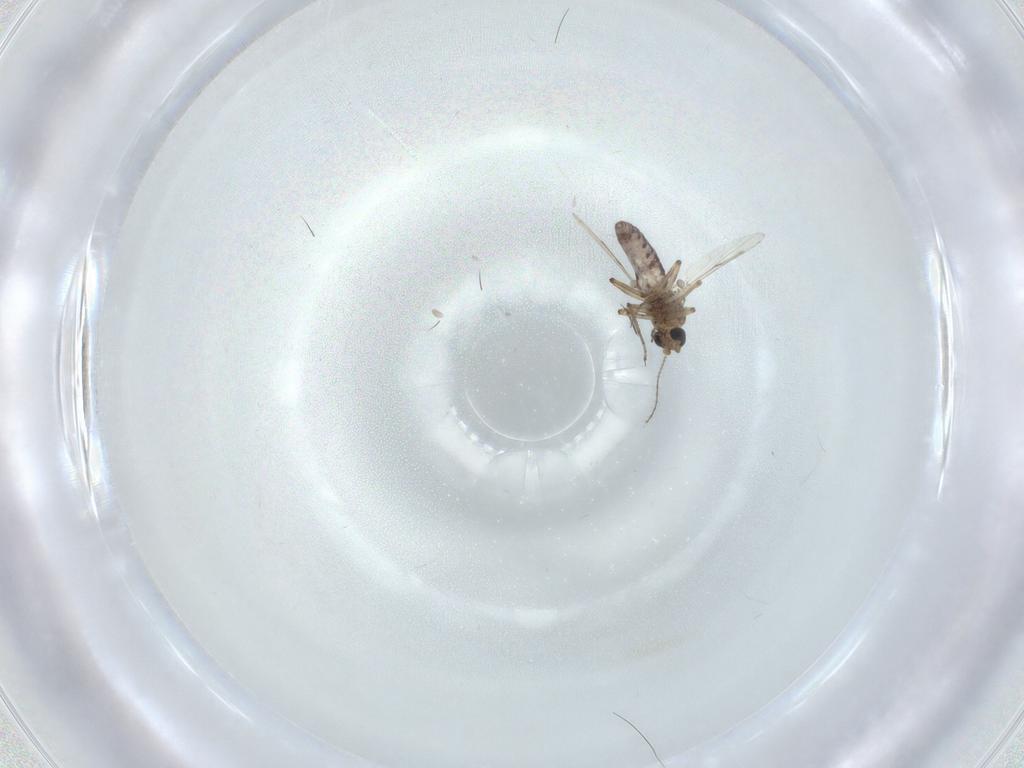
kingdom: Animalia
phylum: Arthropoda
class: Insecta
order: Diptera
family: Ceratopogonidae
